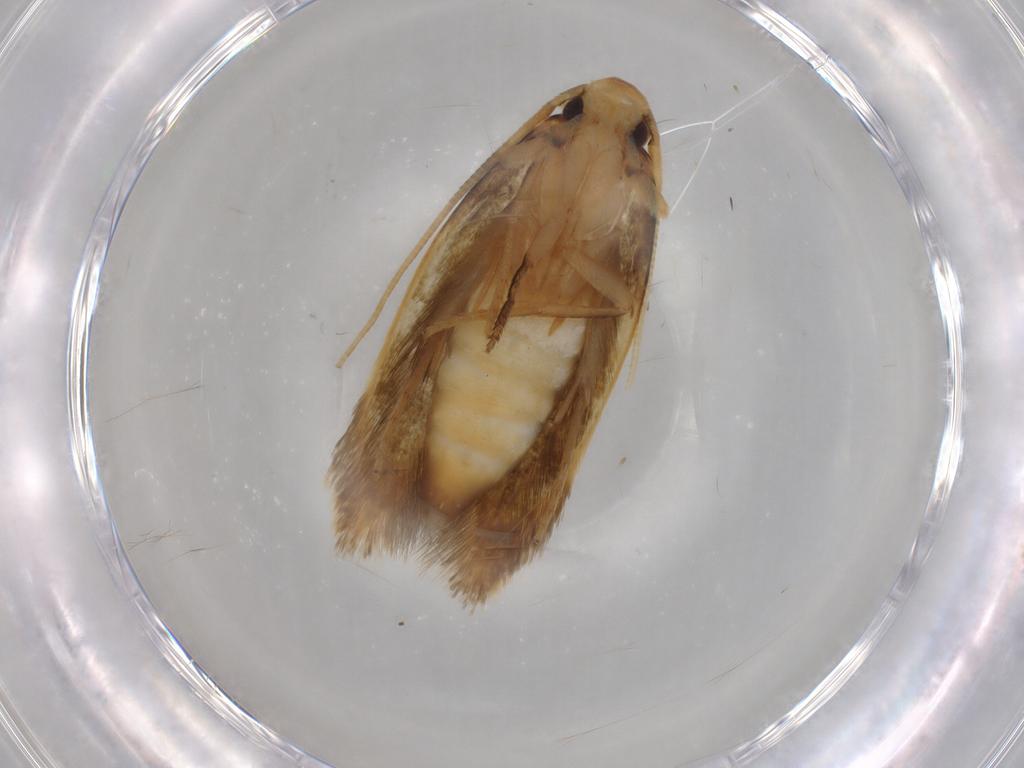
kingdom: Animalia
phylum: Arthropoda
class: Insecta
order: Lepidoptera
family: Tineidae
